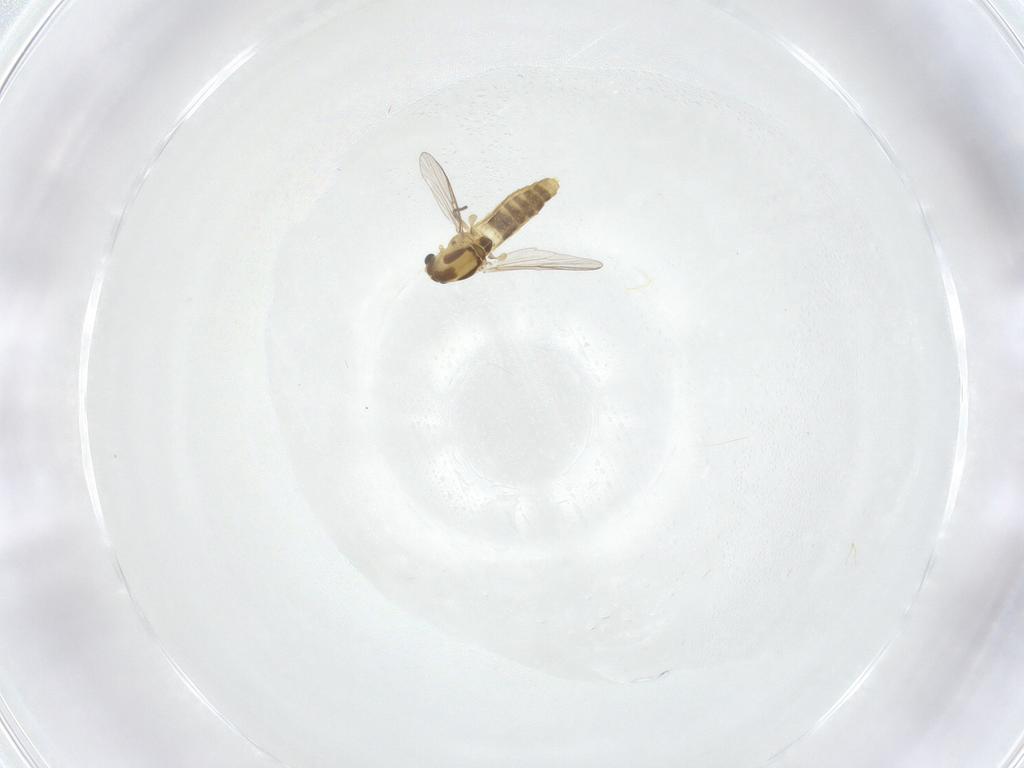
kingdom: Animalia
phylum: Arthropoda
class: Insecta
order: Diptera
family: Chironomidae
